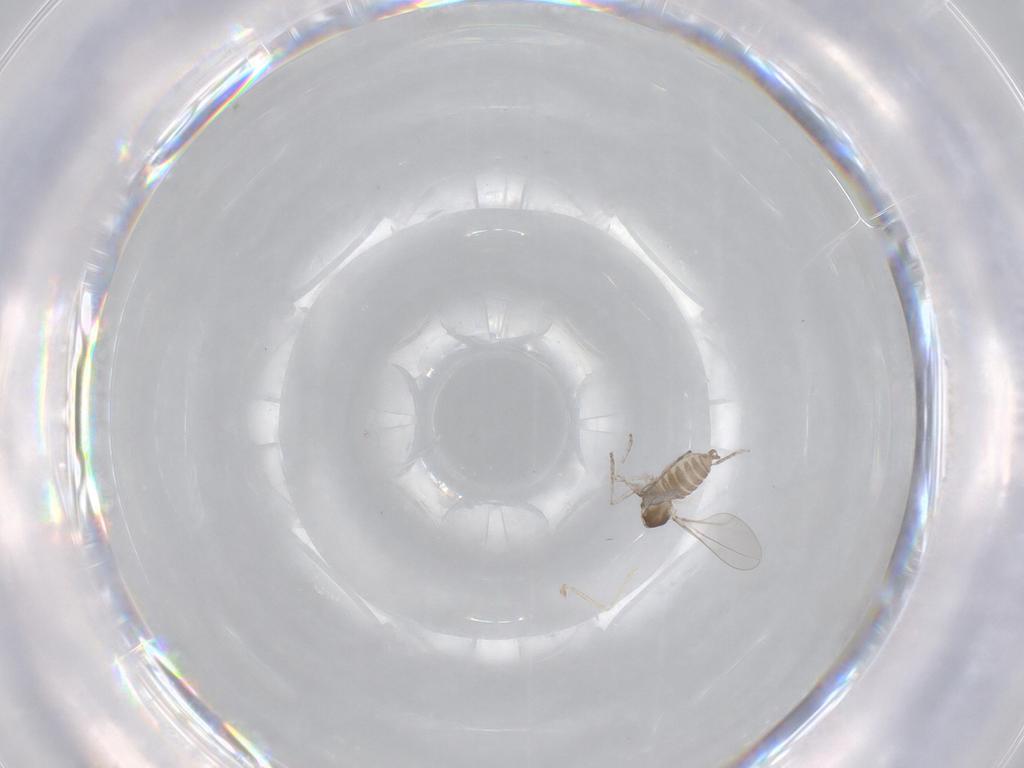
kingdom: Animalia
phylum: Arthropoda
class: Insecta
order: Diptera
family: Cecidomyiidae
